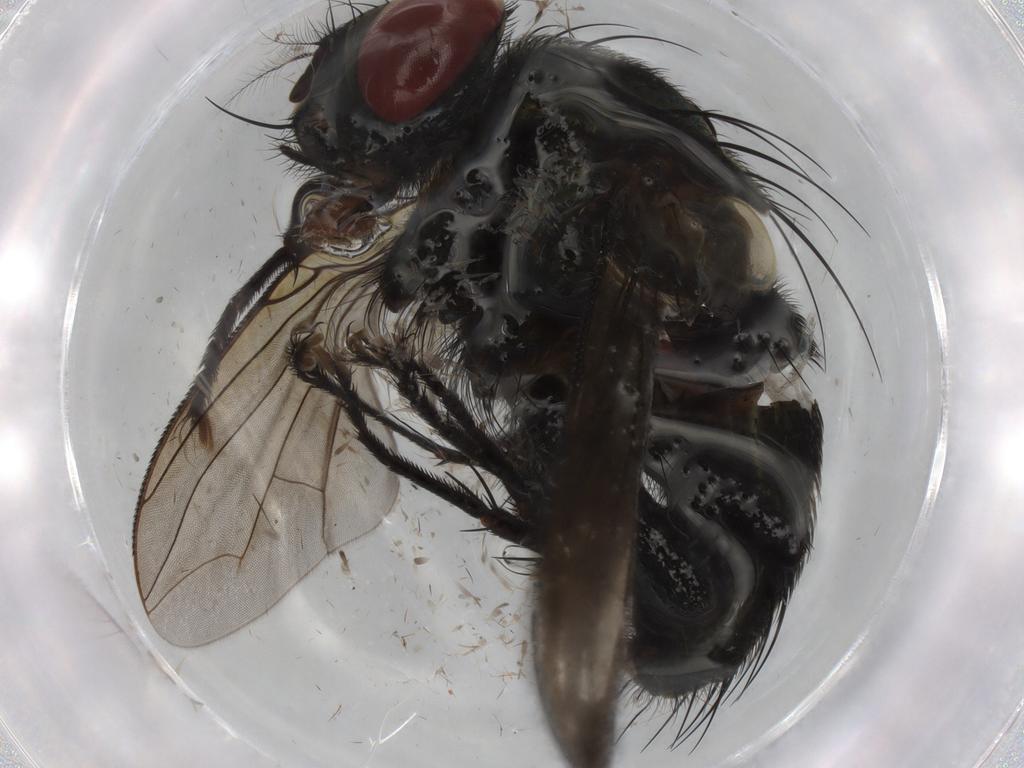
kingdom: Animalia
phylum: Arthropoda
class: Insecta
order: Diptera
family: Sarcophagidae
